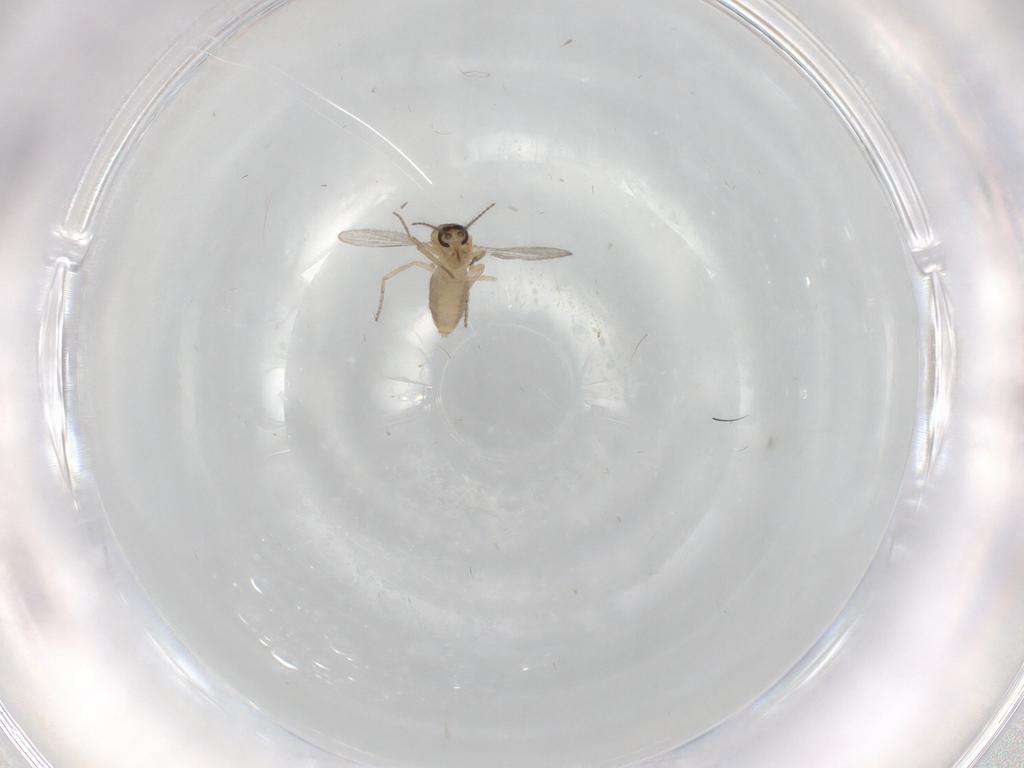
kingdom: Animalia
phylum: Arthropoda
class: Insecta
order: Diptera
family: Ceratopogonidae
